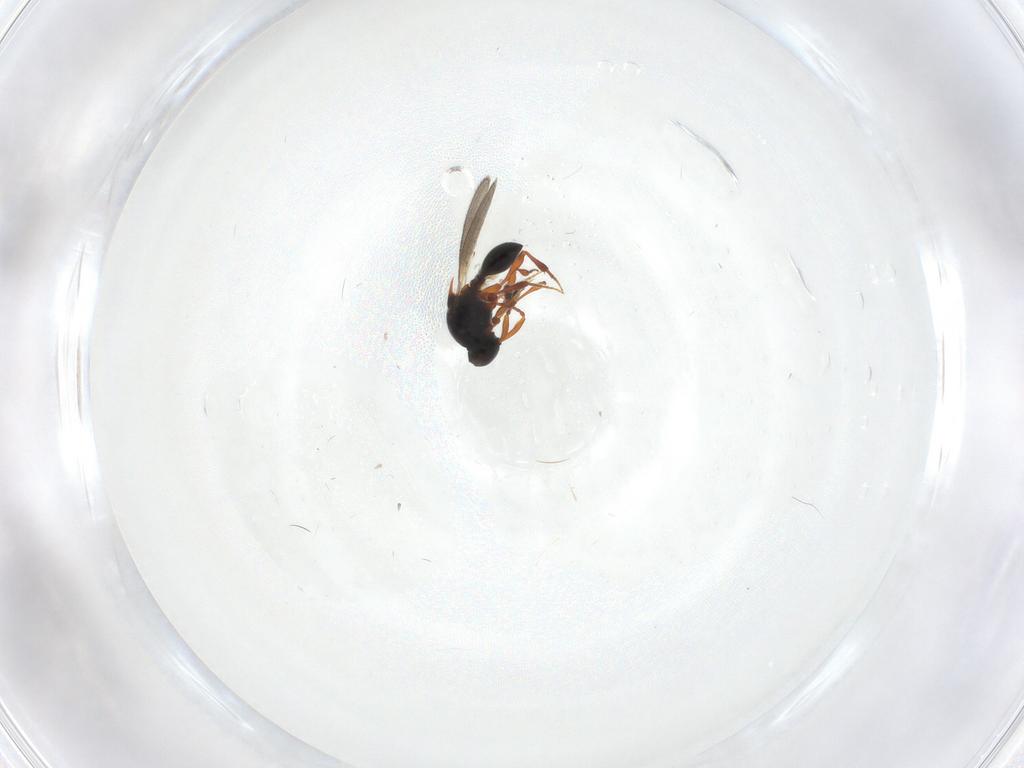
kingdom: Animalia
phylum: Arthropoda
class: Insecta
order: Hymenoptera
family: Platygastridae
